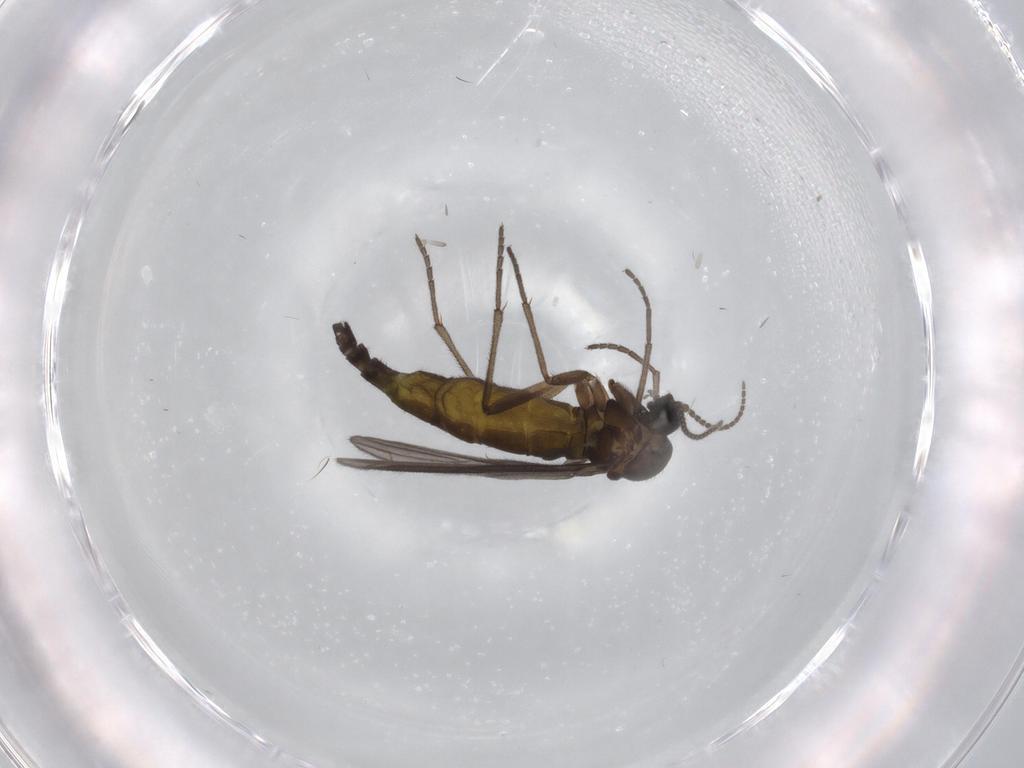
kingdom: Animalia
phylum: Arthropoda
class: Insecta
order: Diptera
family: Sciaridae
